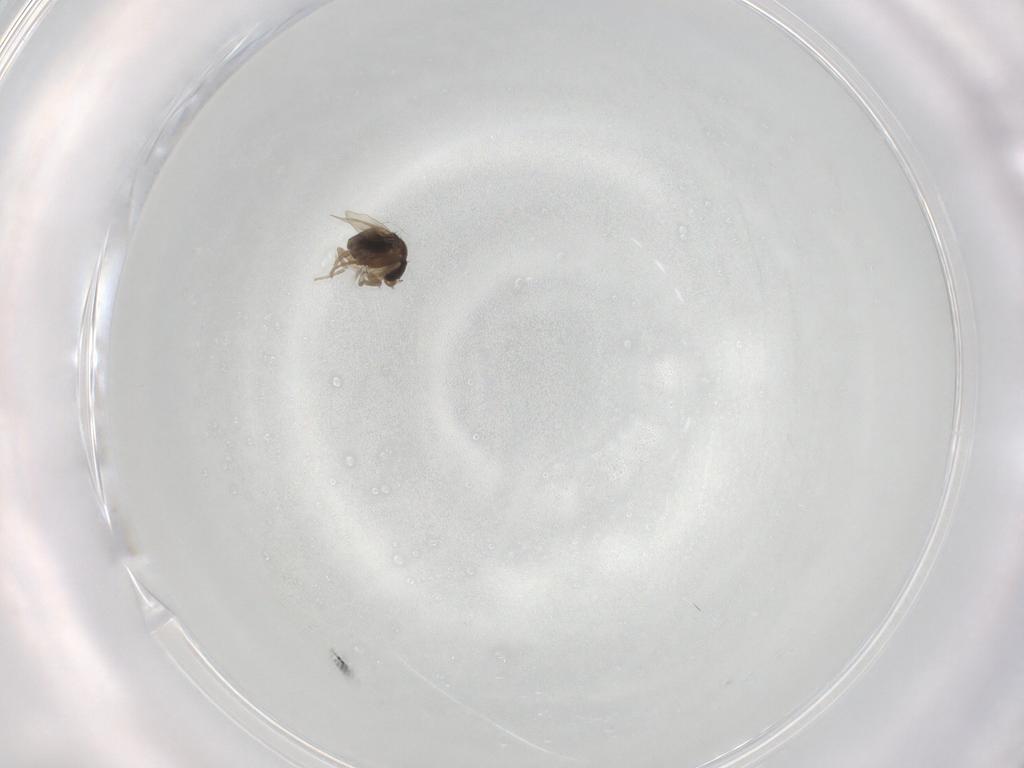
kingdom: Animalia
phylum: Arthropoda
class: Insecta
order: Diptera
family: Phoridae
